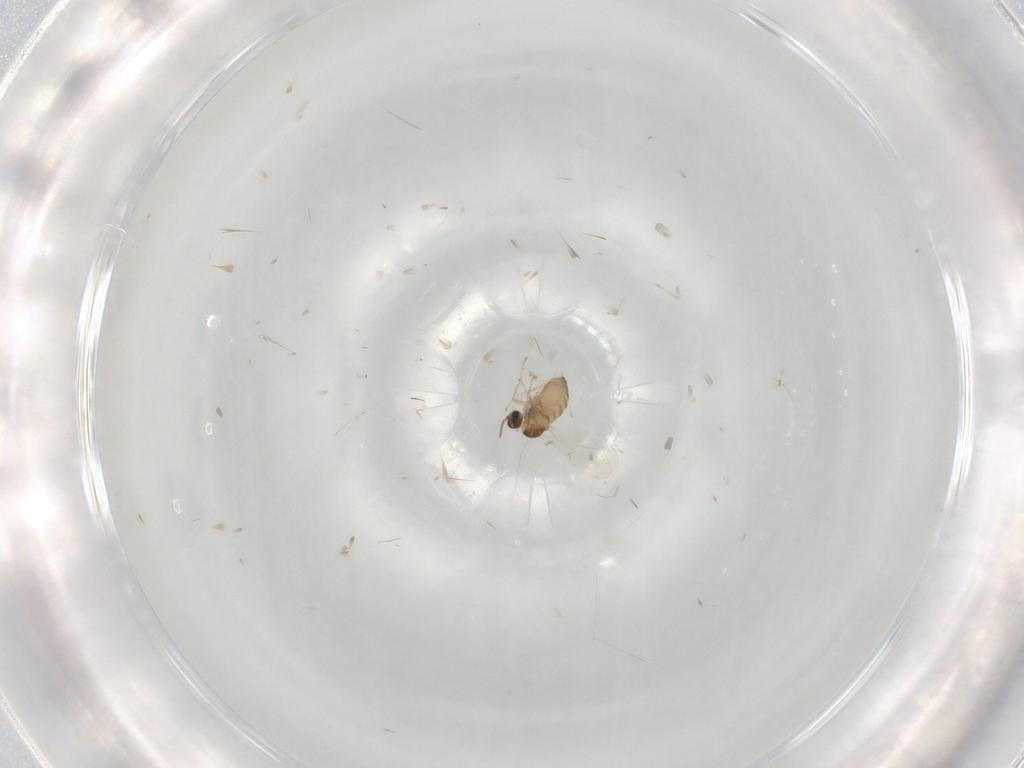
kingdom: Animalia
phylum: Arthropoda
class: Insecta
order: Diptera
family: Cecidomyiidae
